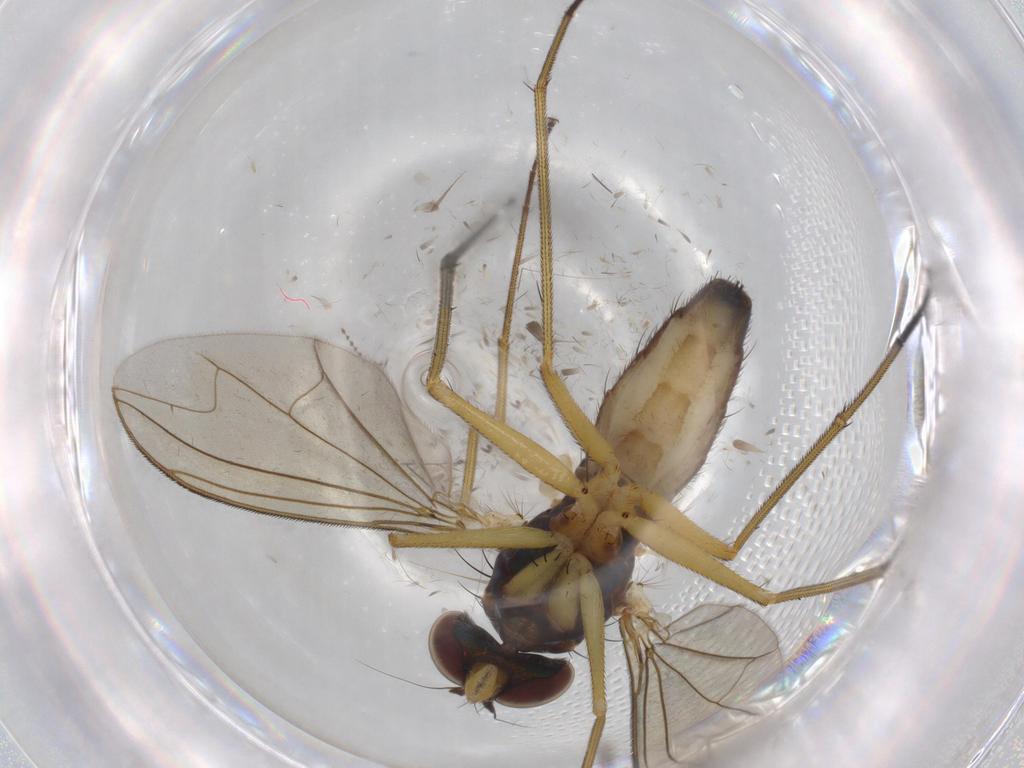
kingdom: Animalia
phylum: Arthropoda
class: Insecta
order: Diptera
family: Dolichopodidae
